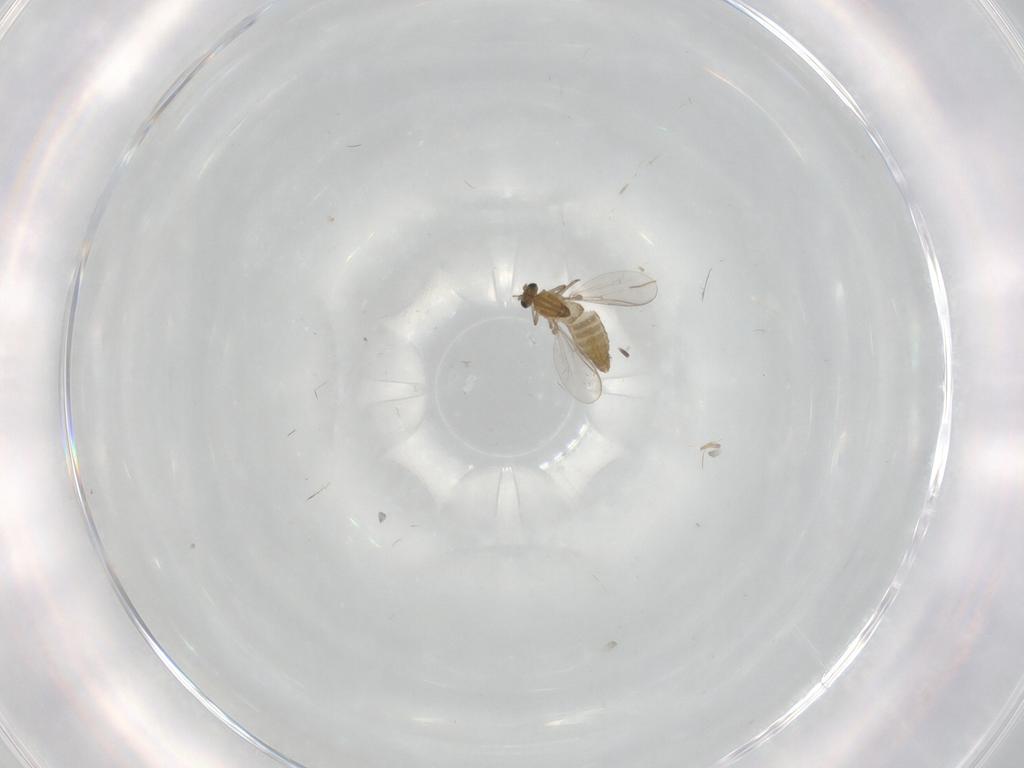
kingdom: Animalia
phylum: Arthropoda
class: Insecta
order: Diptera
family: Chironomidae
